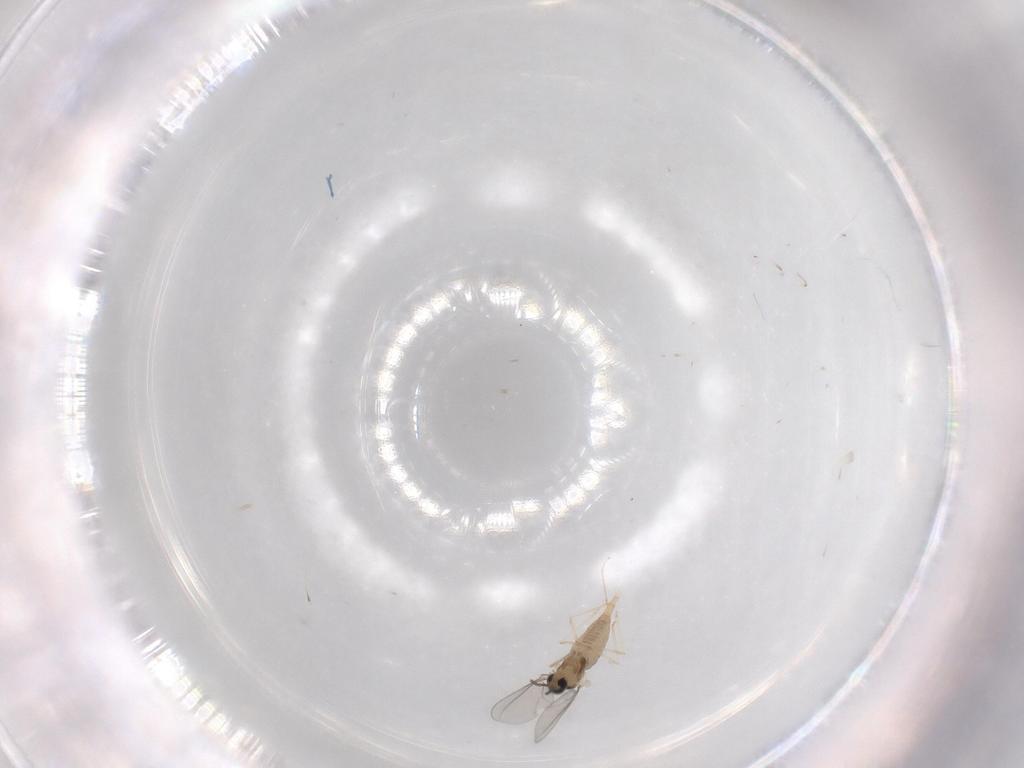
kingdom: Animalia
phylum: Arthropoda
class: Insecta
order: Diptera
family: Cecidomyiidae
